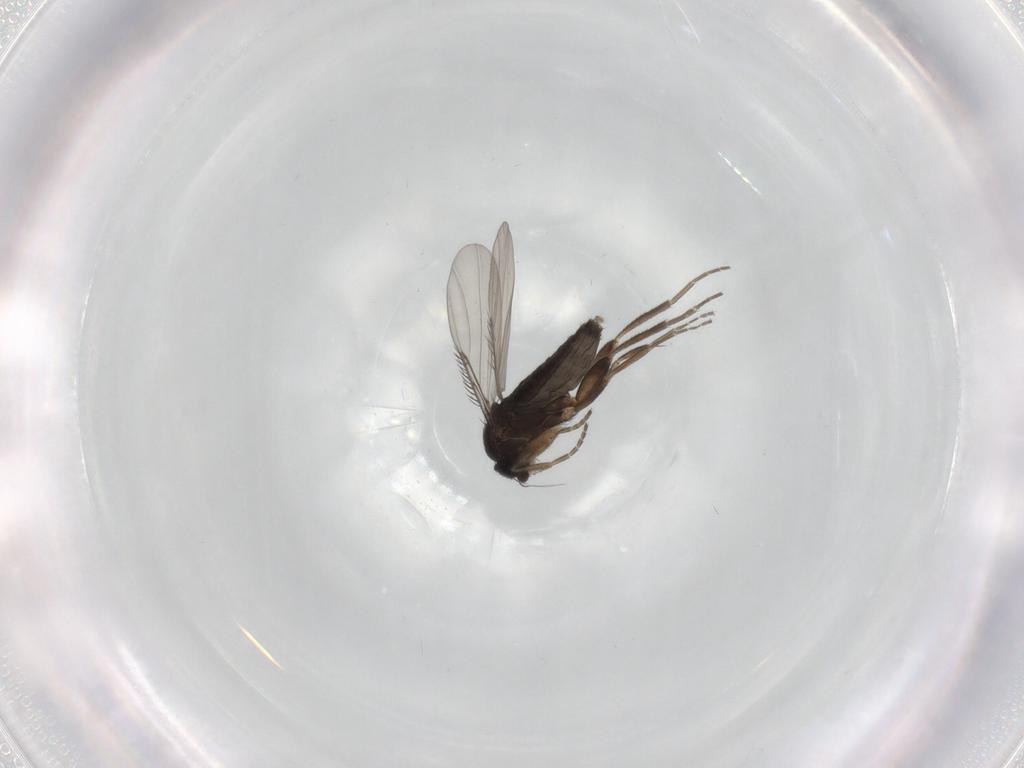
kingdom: Animalia
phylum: Arthropoda
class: Insecta
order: Diptera
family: Phoridae
